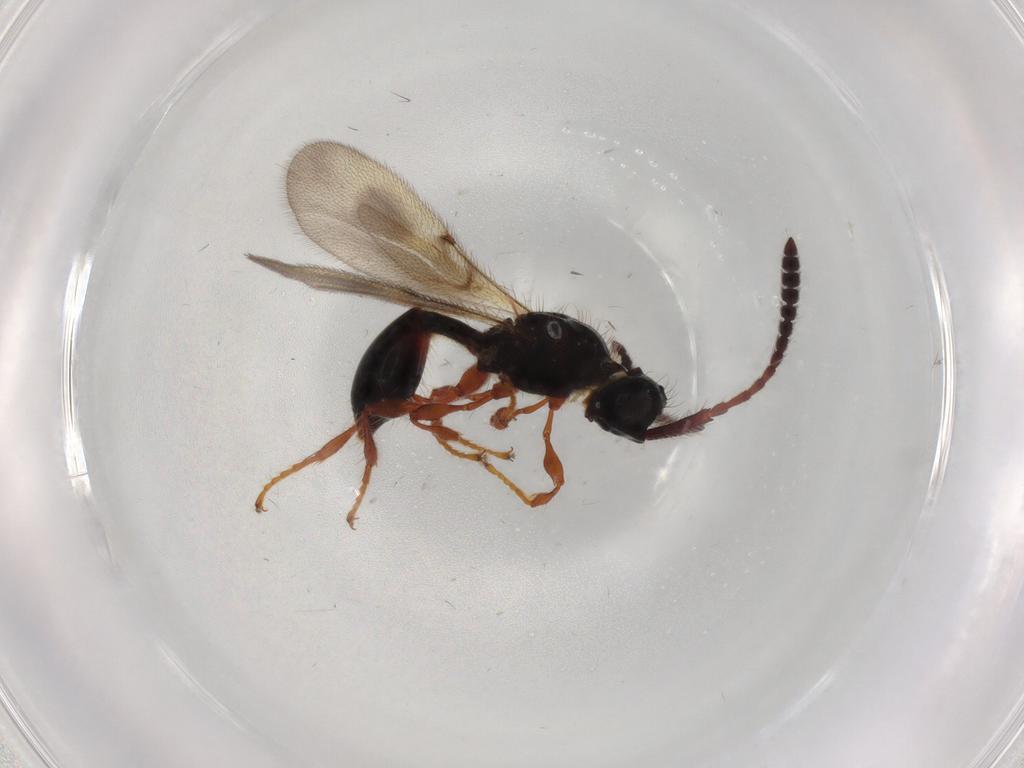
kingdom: Animalia
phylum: Arthropoda
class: Insecta
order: Hymenoptera
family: Diapriidae
